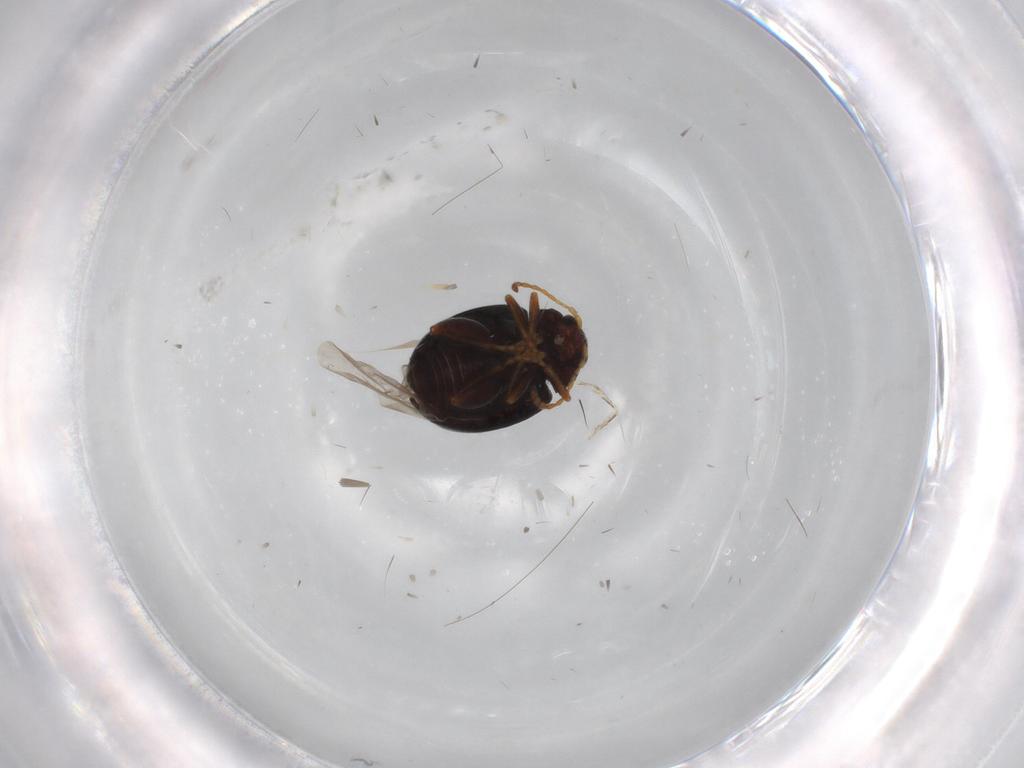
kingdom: Animalia
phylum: Arthropoda
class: Insecta
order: Coleoptera
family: Chrysomelidae
